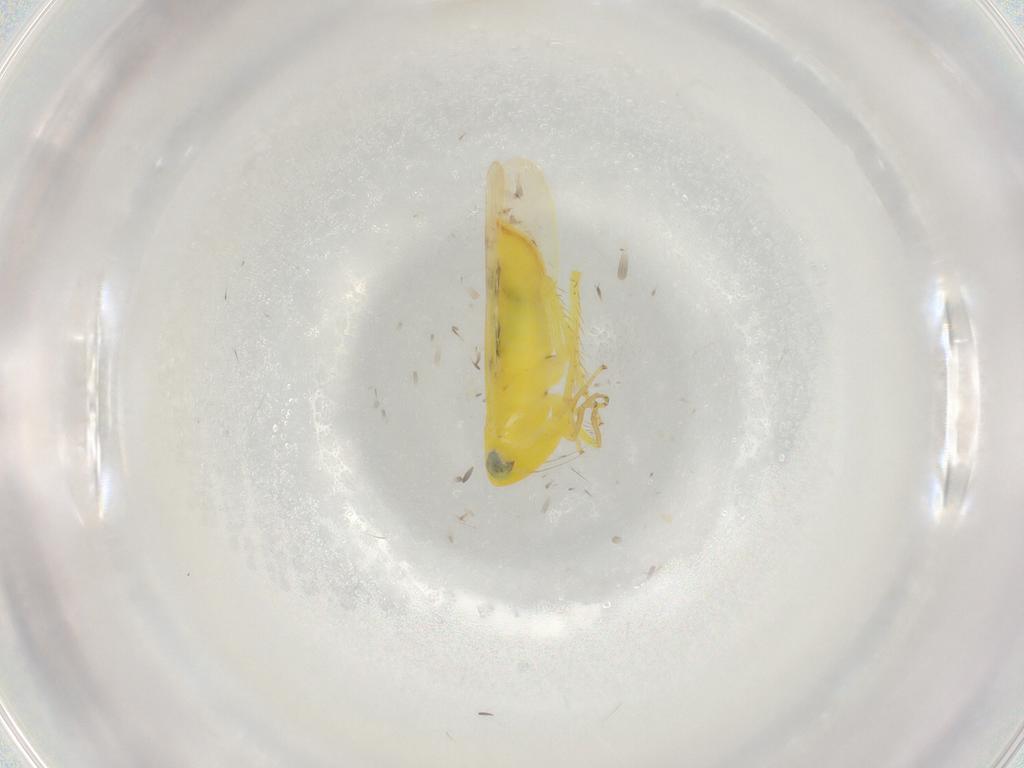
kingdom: Animalia
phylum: Arthropoda
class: Insecta
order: Hemiptera
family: Cicadellidae
